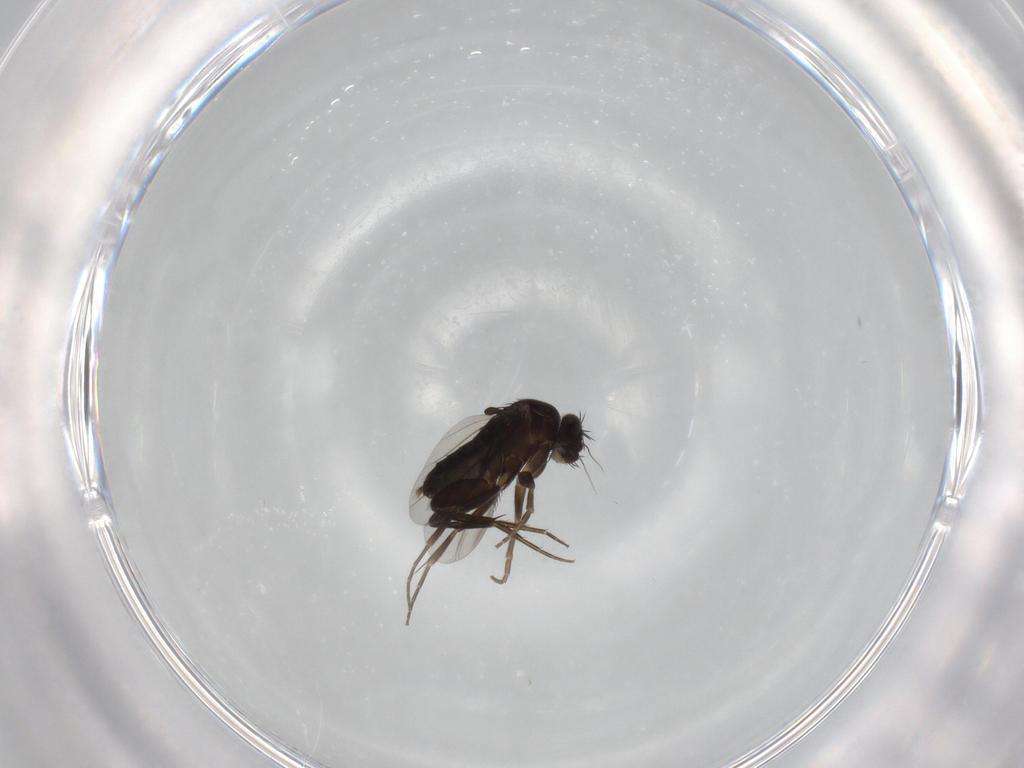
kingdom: Animalia
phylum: Arthropoda
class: Insecta
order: Diptera
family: Phoridae
